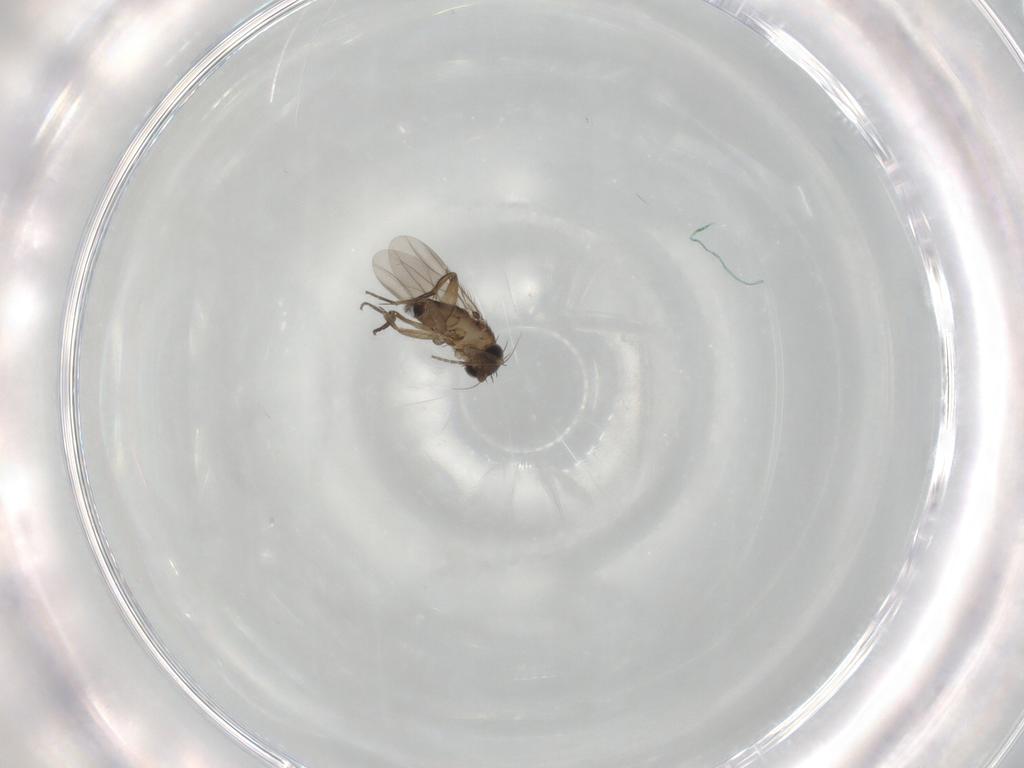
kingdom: Animalia
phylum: Arthropoda
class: Insecta
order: Diptera
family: Phoridae
